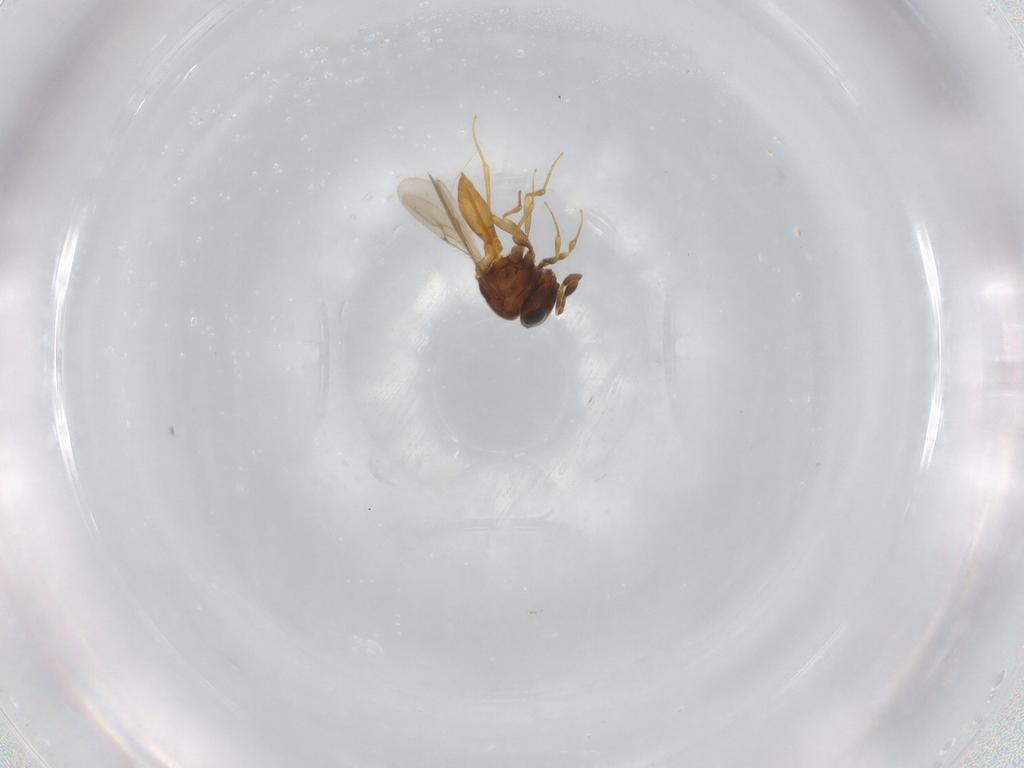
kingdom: Animalia
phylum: Arthropoda
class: Insecta
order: Hymenoptera
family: Scelionidae
